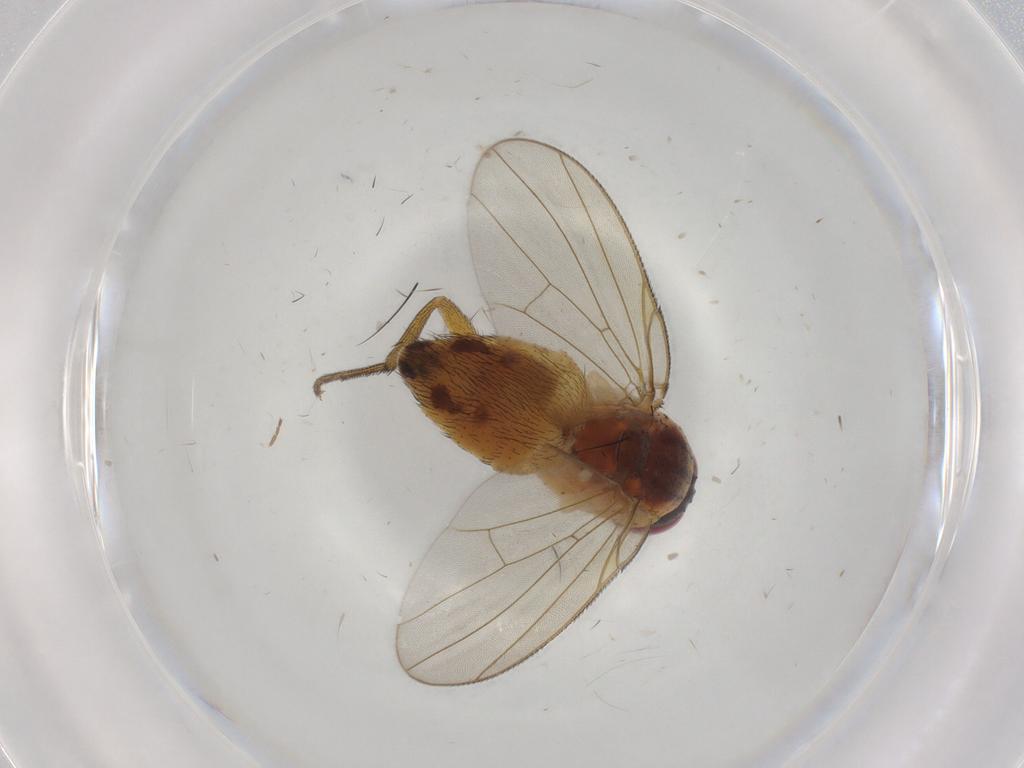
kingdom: Animalia
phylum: Arthropoda
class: Insecta
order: Diptera
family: Muscidae
